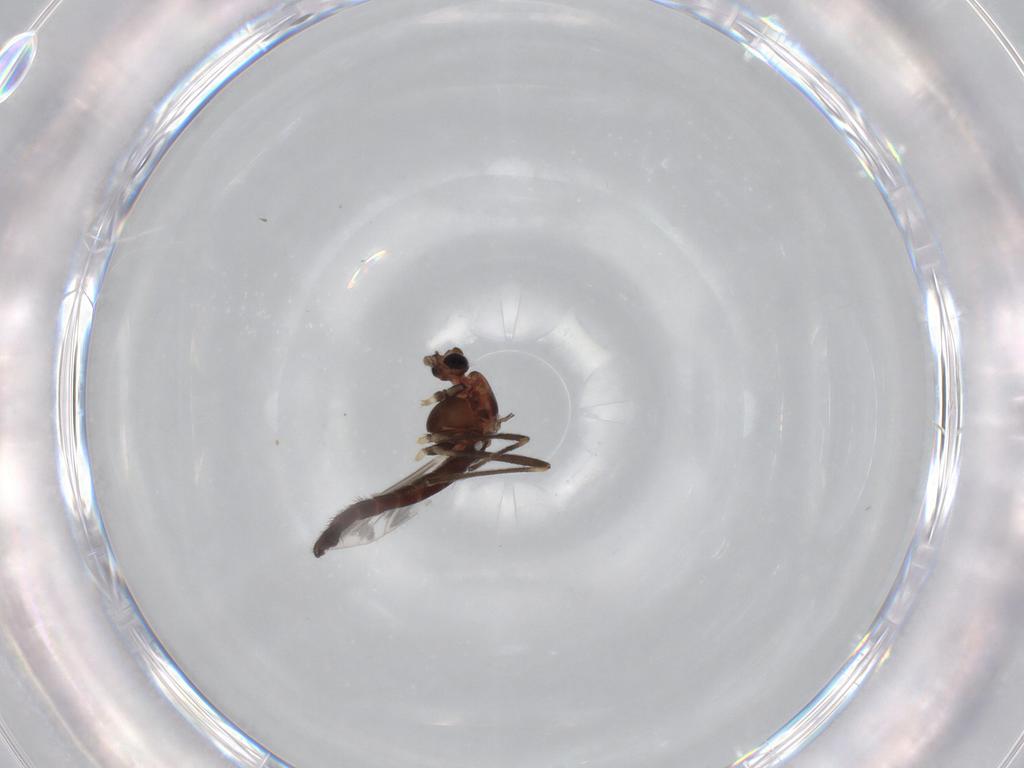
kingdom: Animalia
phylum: Arthropoda
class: Insecta
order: Diptera
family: Chironomidae
